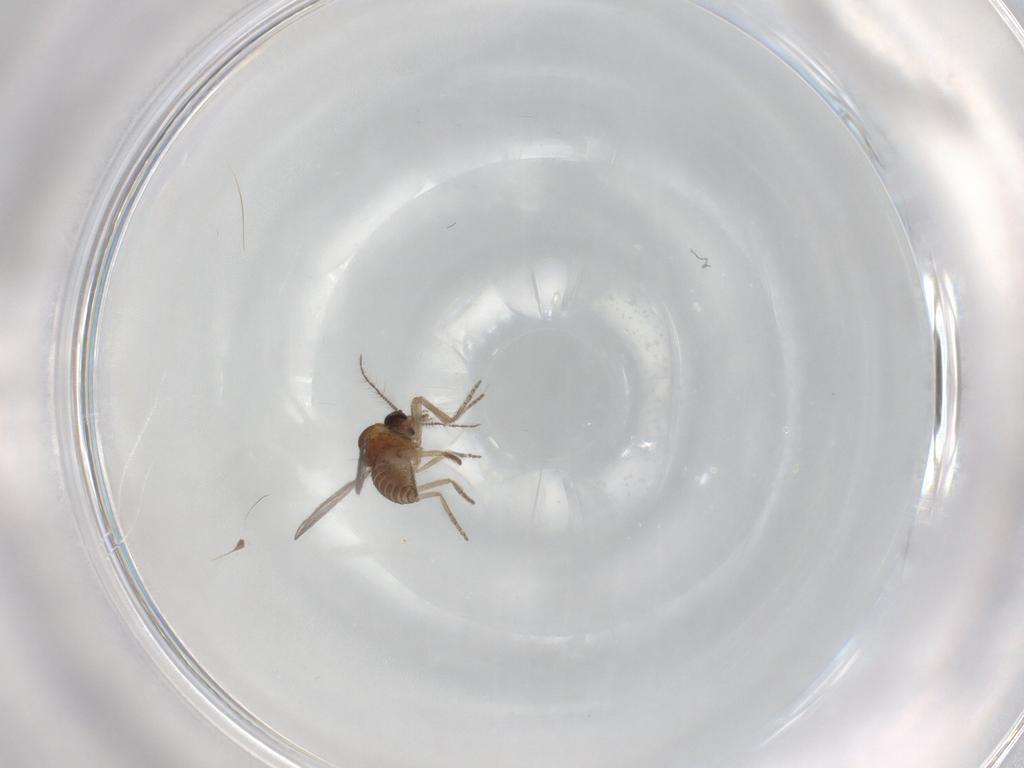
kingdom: Animalia
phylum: Arthropoda
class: Insecta
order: Diptera
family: Ceratopogonidae
